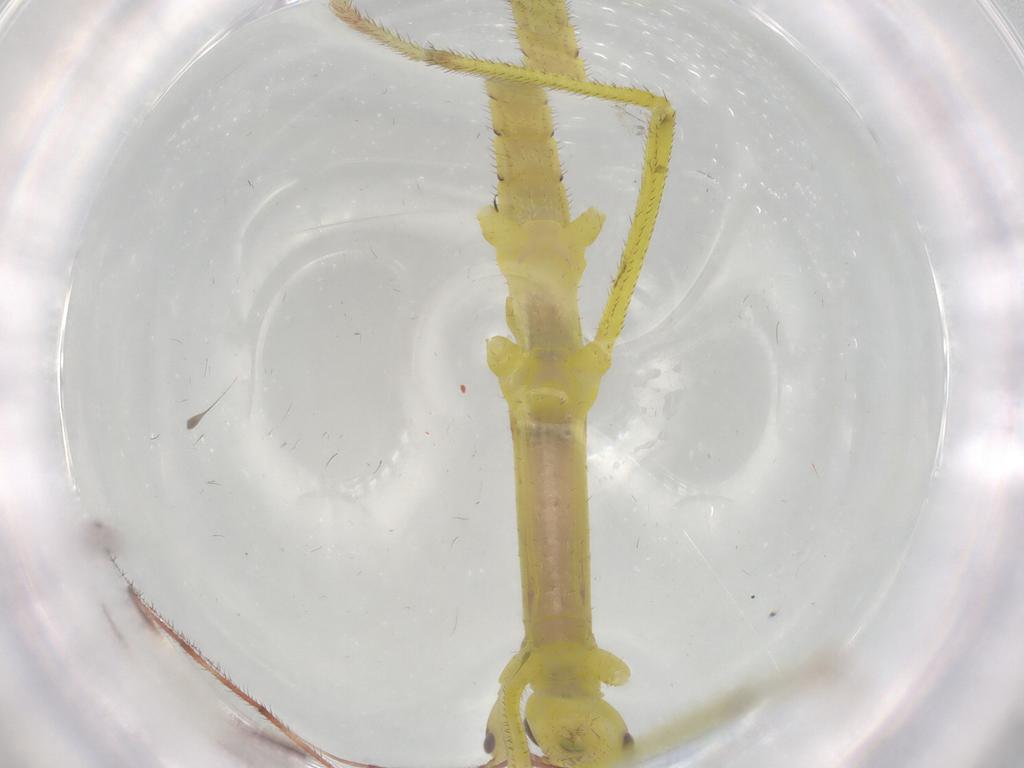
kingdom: Animalia
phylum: Arthropoda
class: Insecta
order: Phasmida
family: Agathemeridae
